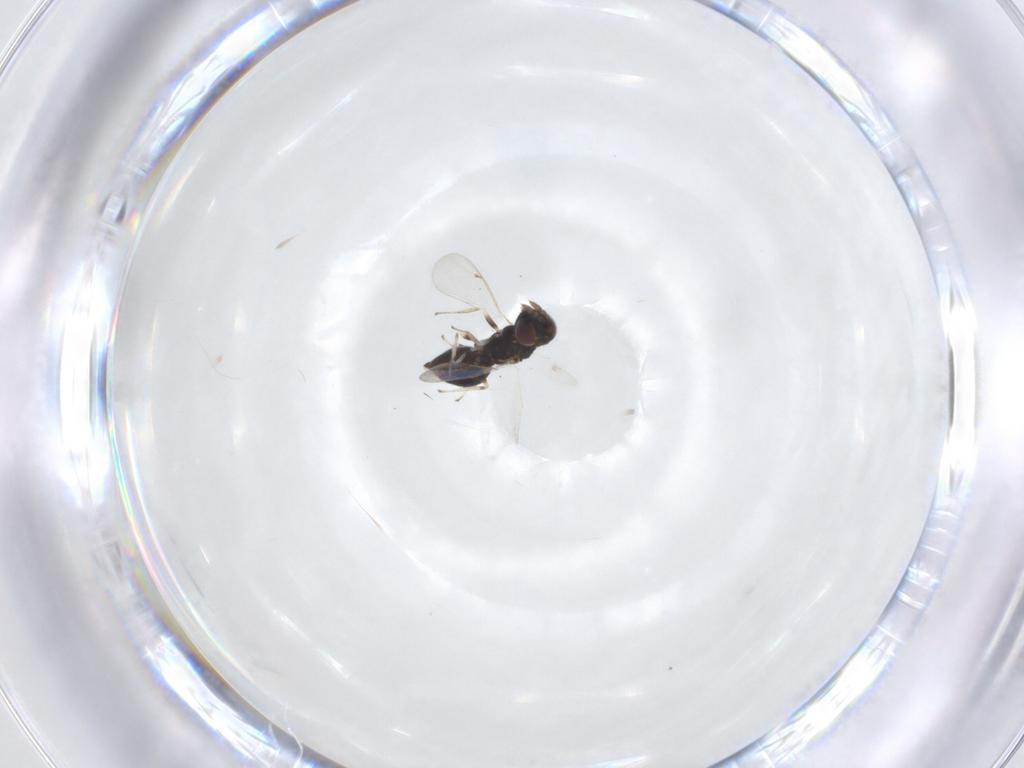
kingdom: Animalia
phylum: Arthropoda
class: Insecta
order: Hymenoptera
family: Eulophidae
